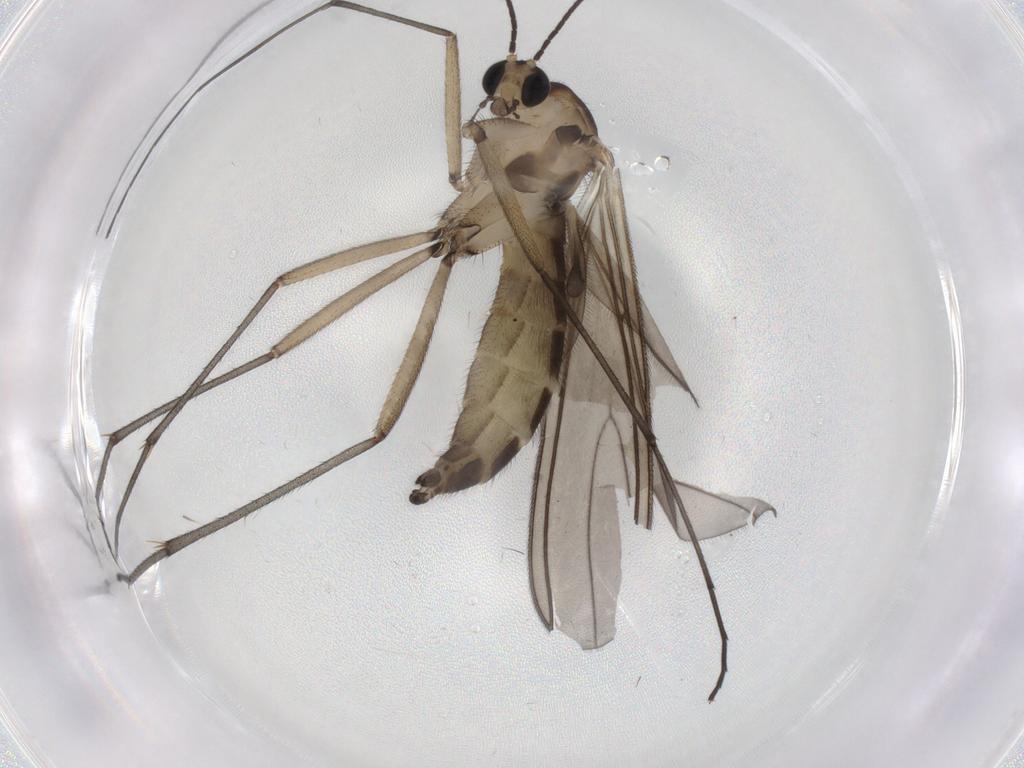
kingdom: Animalia
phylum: Arthropoda
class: Insecta
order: Diptera
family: Sciaridae
